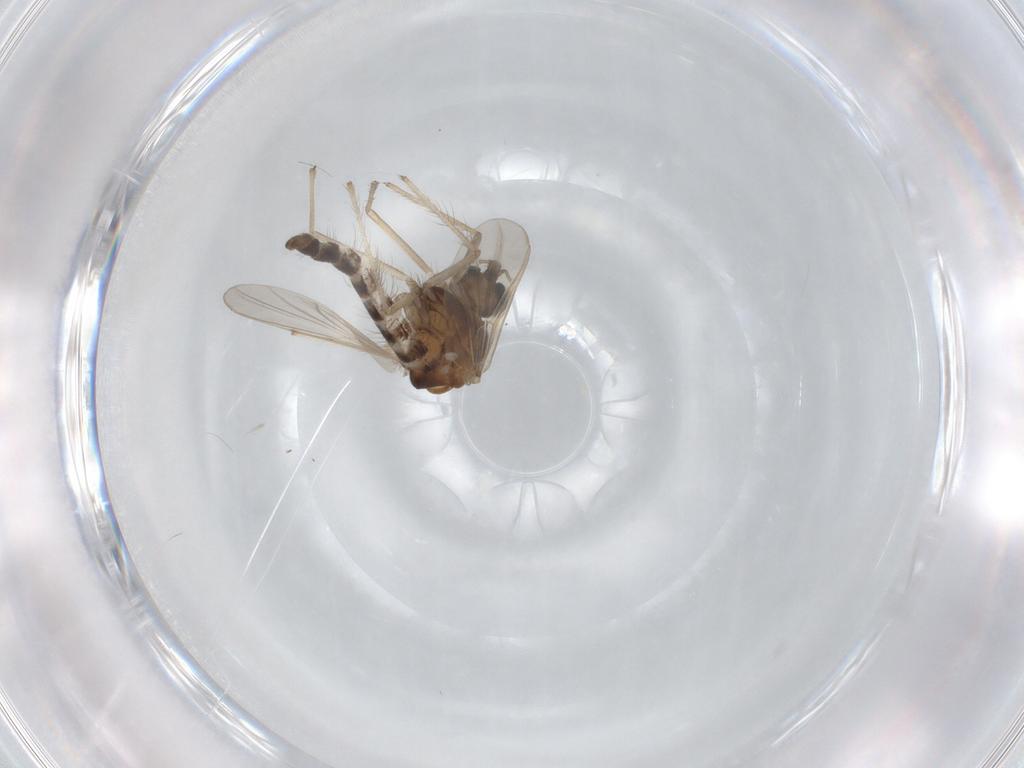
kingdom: Animalia
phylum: Arthropoda
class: Insecta
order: Diptera
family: Chironomidae
